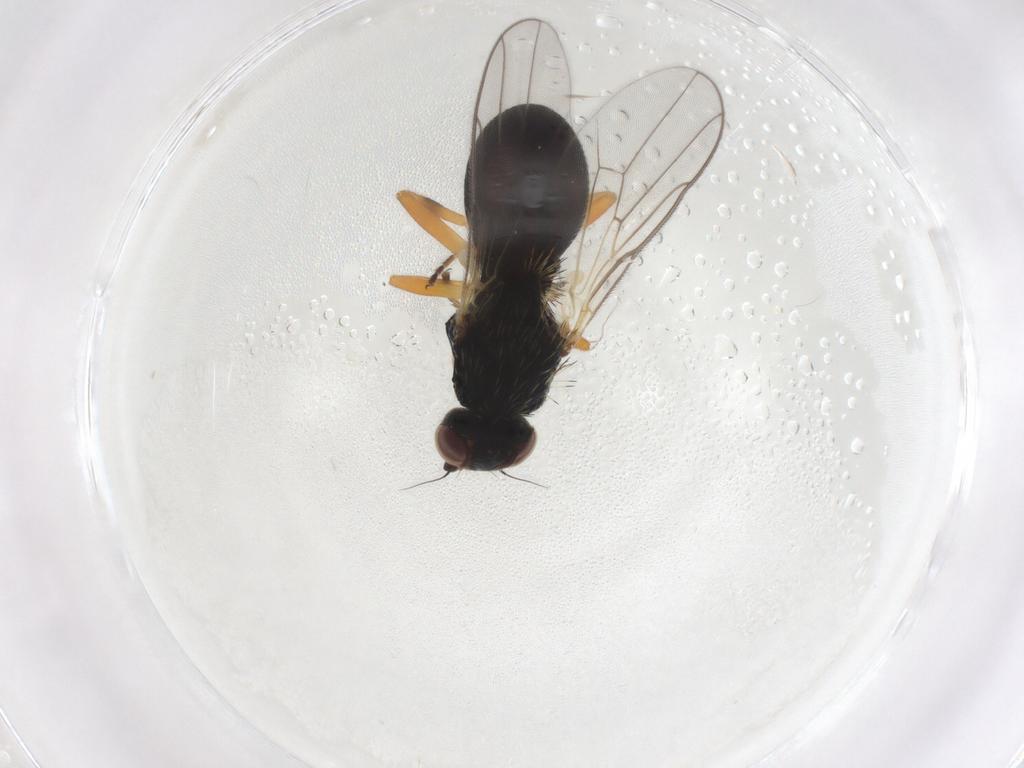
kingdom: Animalia
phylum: Arthropoda
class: Insecta
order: Diptera
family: Chloropidae
